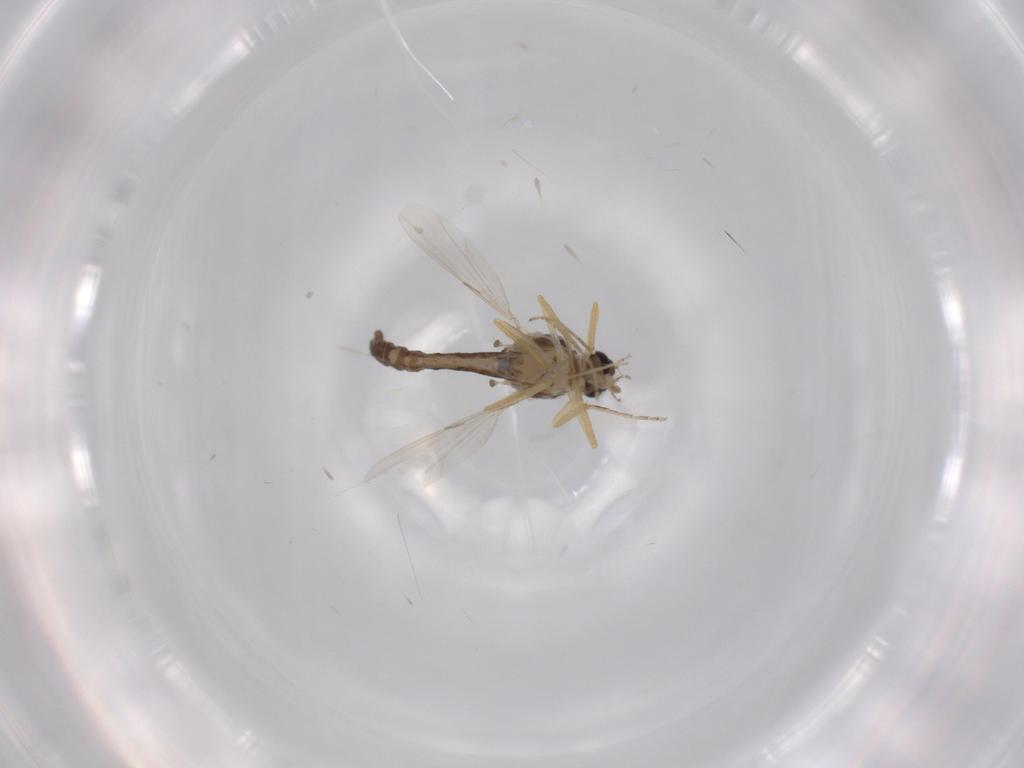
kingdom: Animalia
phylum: Arthropoda
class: Insecta
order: Diptera
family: Ceratopogonidae
